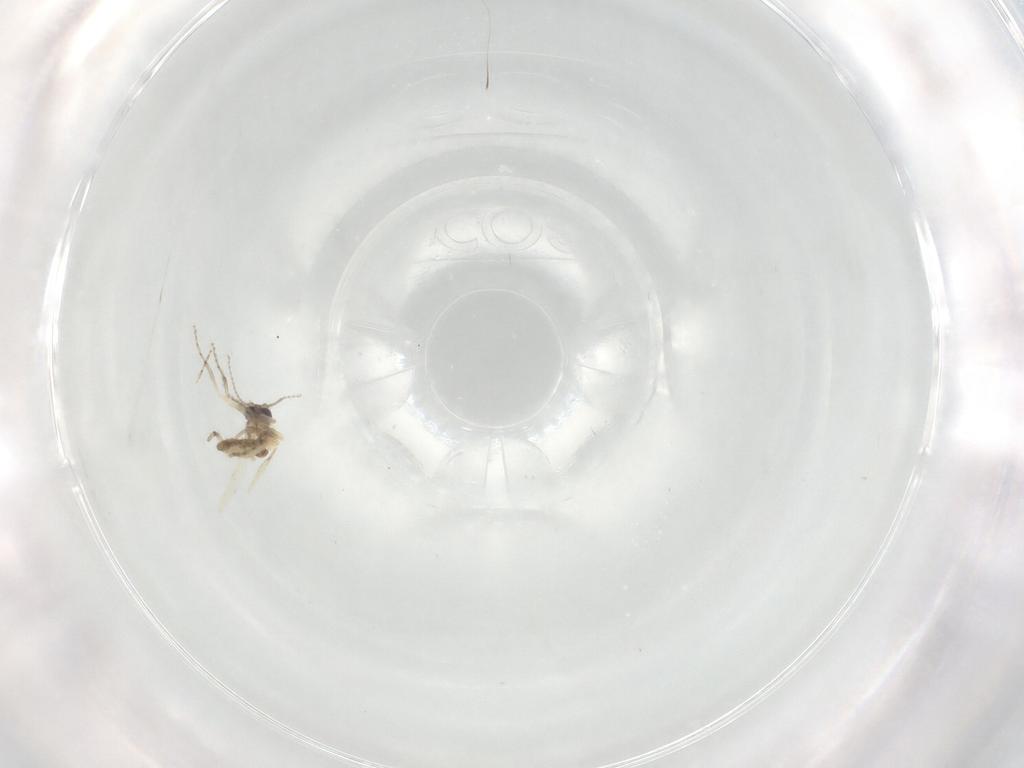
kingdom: Animalia
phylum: Arthropoda
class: Insecta
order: Diptera
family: Ceratopogonidae
